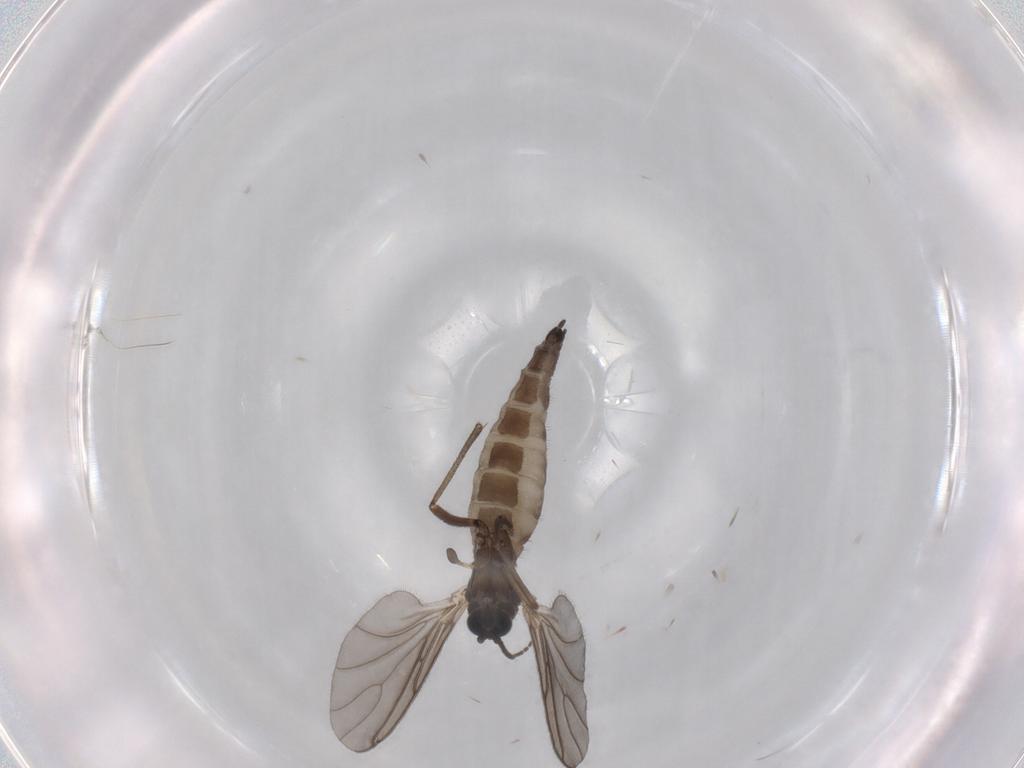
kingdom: Animalia
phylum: Arthropoda
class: Insecta
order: Diptera
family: Sciaridae
